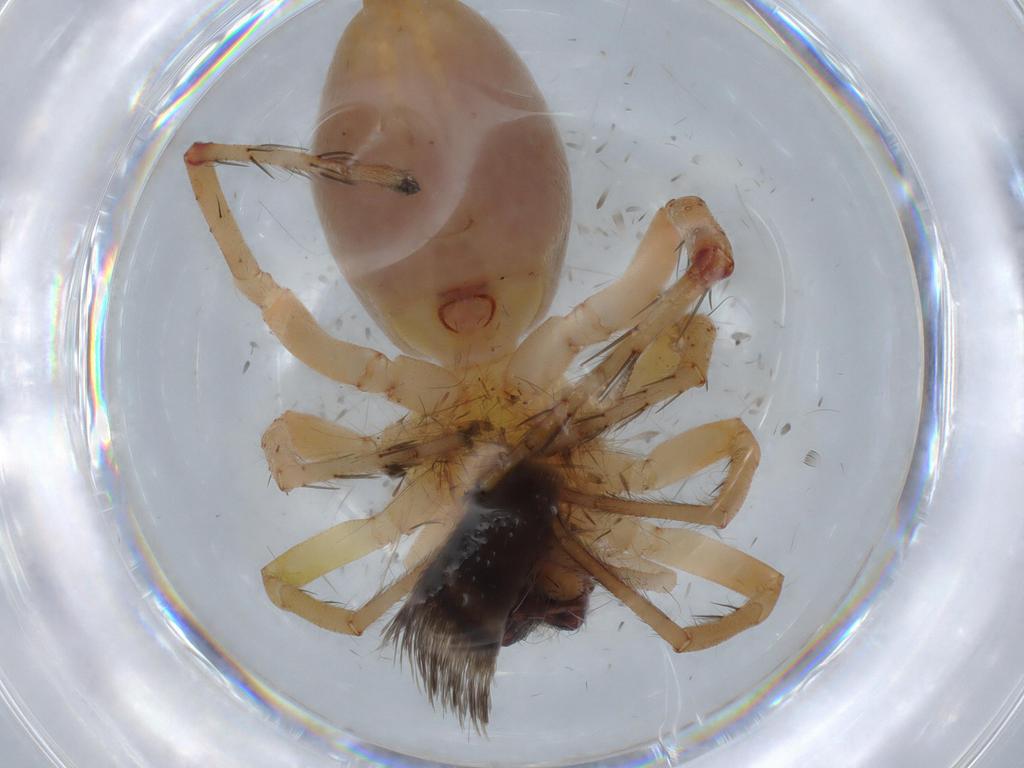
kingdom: Animalia
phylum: Arthropoda
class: Arachnida
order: Araneae
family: Anyphaenidae
